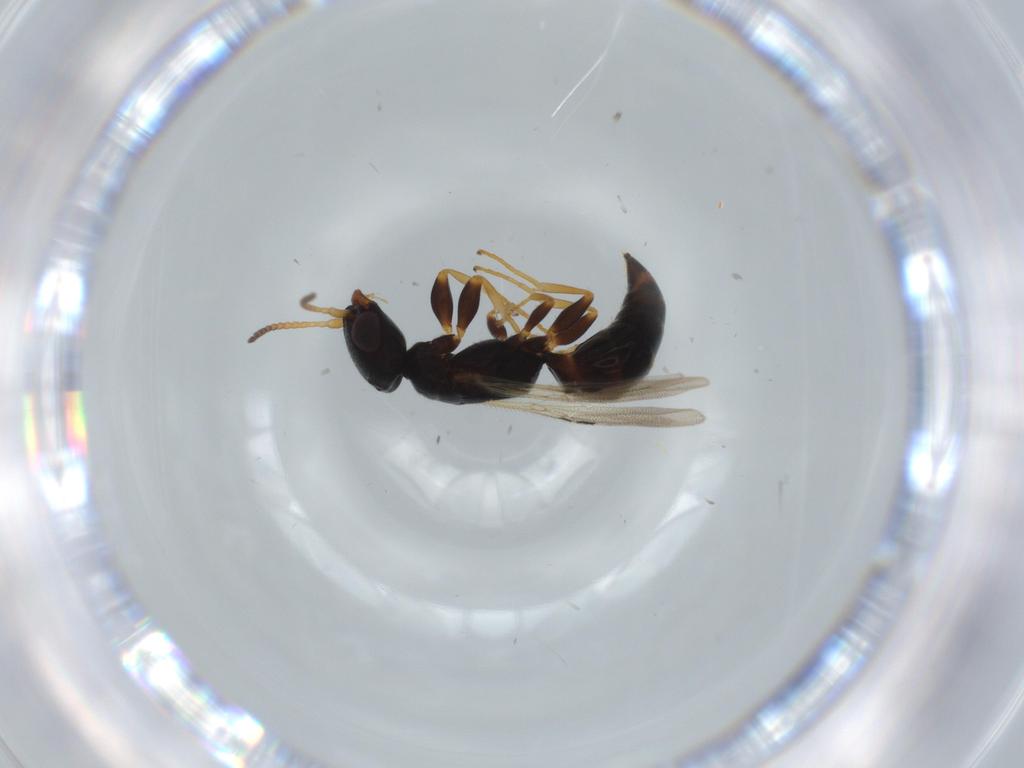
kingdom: Animalia
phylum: Arthropoda
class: Insecta
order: Hymenoptera
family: Bethylidae
